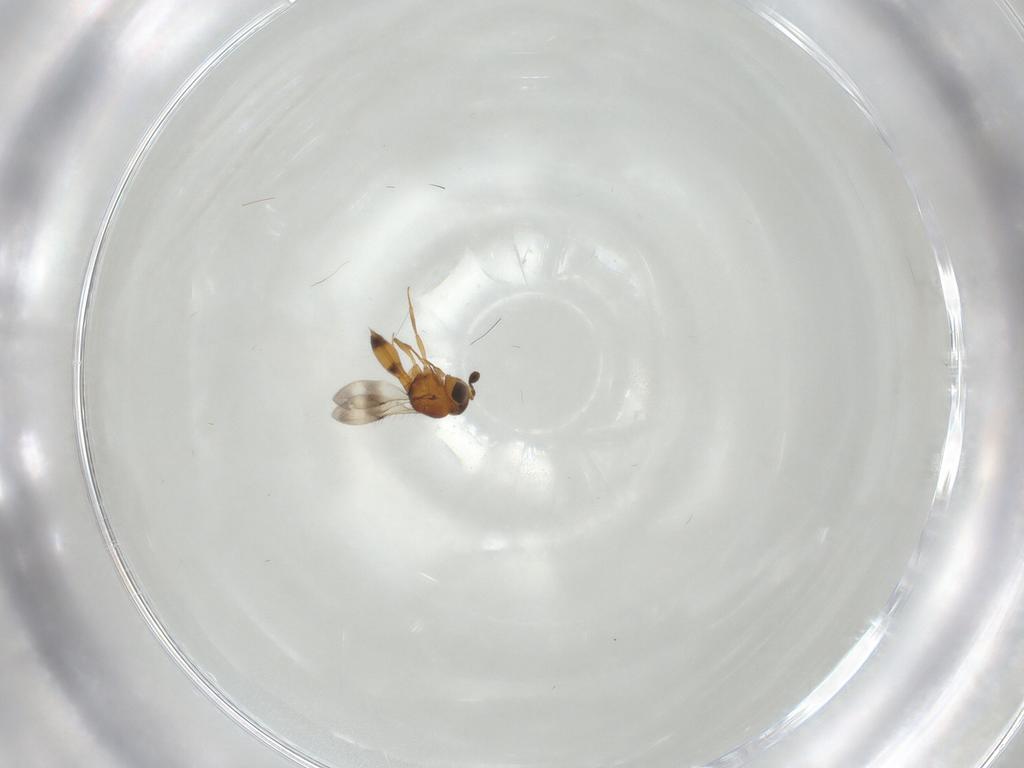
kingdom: Animalia
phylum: Arthropoda
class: Insecta
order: Hymenoptera
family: Scelionidae
